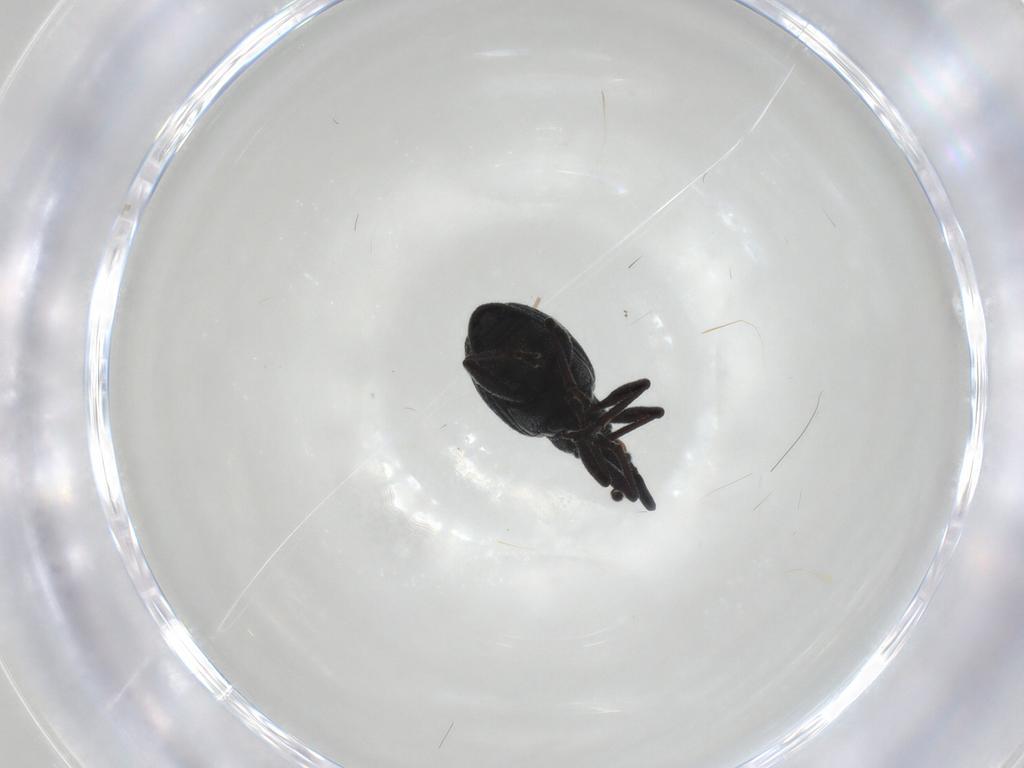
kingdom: Animalia
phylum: Arthropoda
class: Insecta
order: Coleoptera
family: Brentidae
